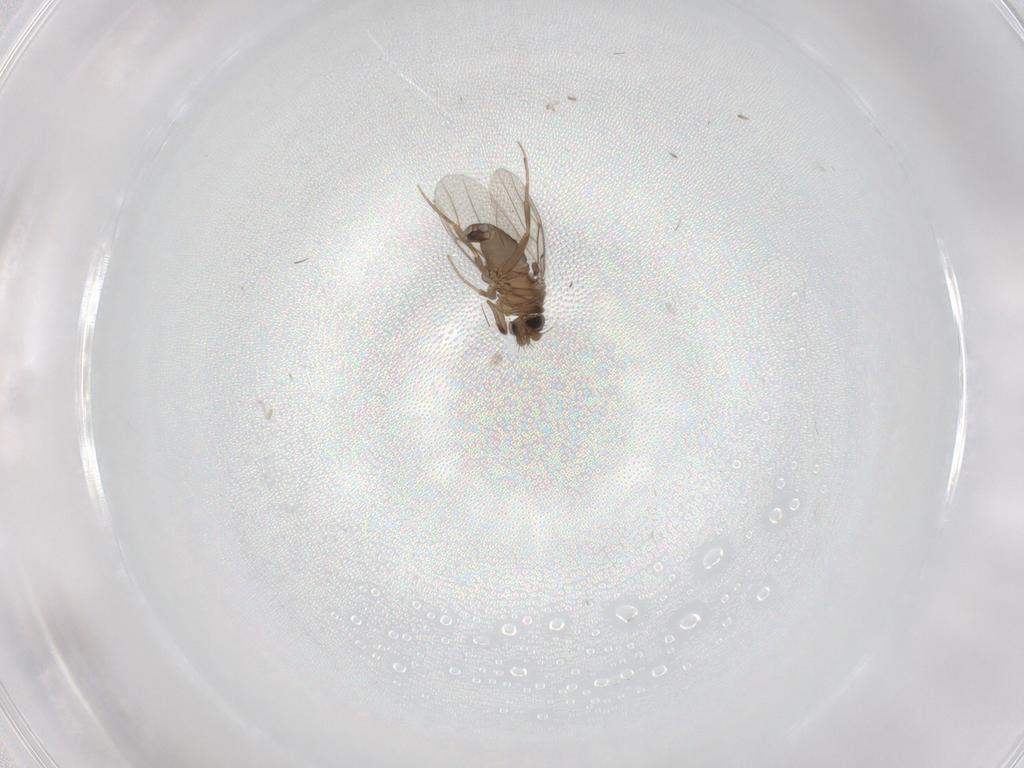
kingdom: Animalia
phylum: Arthropoda
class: Insecta
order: Diptera
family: Phoridae
